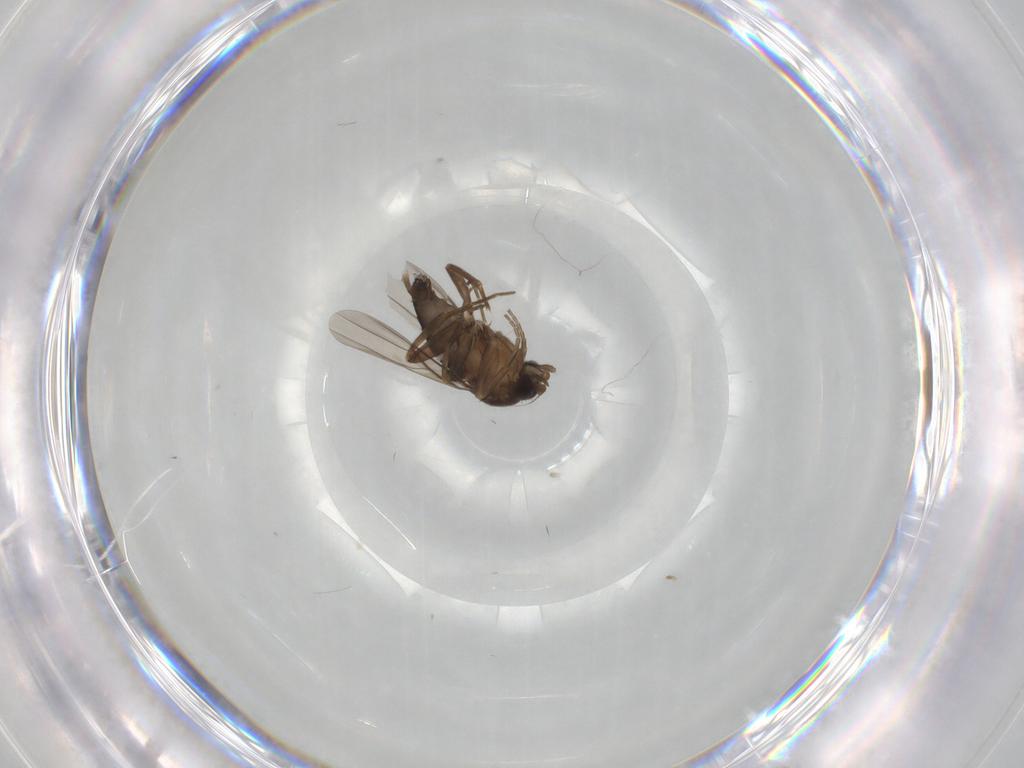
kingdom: Animalia
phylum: Arthropoda
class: Insecta
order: Diptera
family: Phoridae
